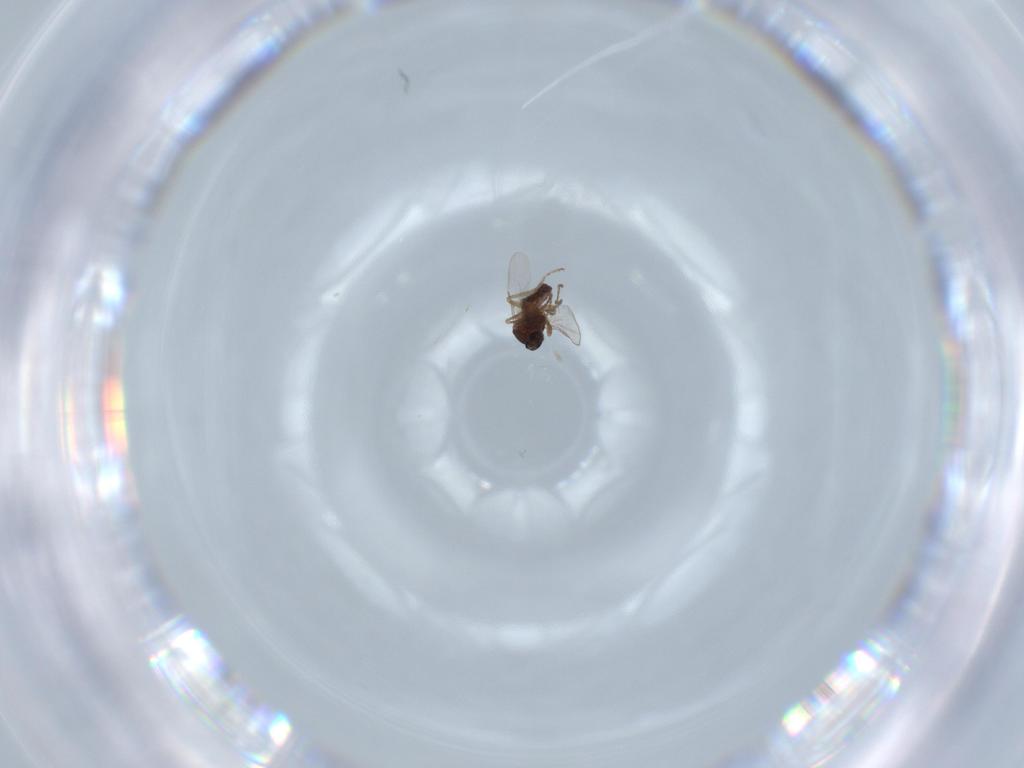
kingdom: Animalia
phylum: Arthropoda
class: Insecta
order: Diptera
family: Ceratopogonidae
